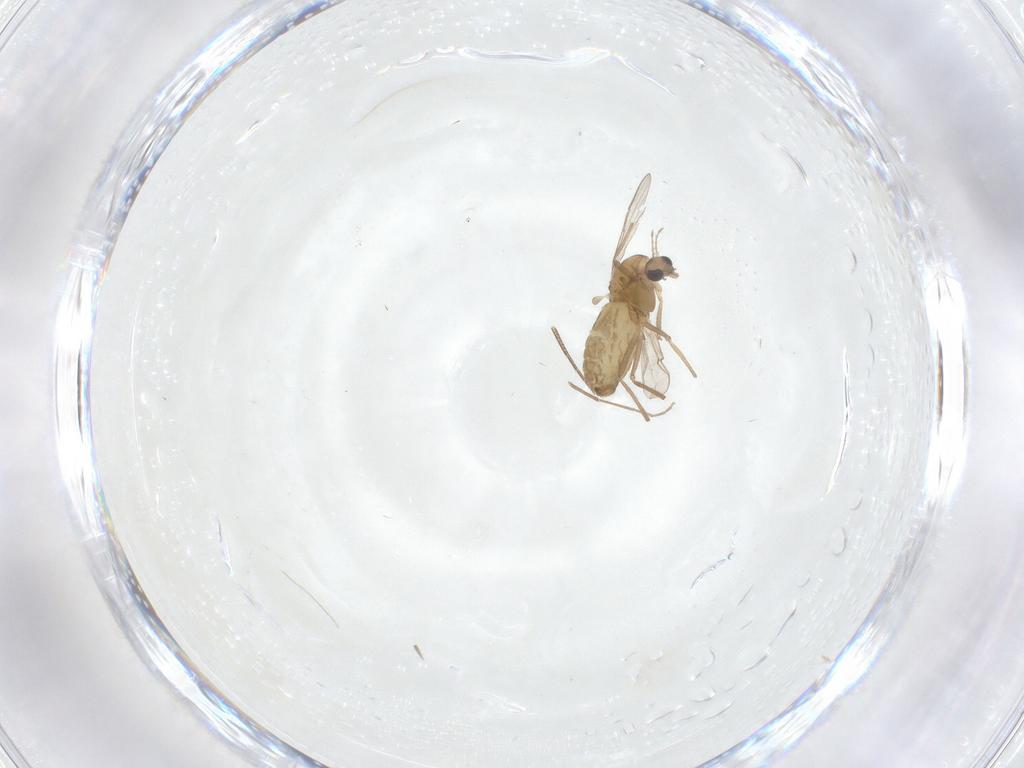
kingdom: Animalia
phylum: Arthropoda
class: Insecta
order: Diptera
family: Chironomidae
